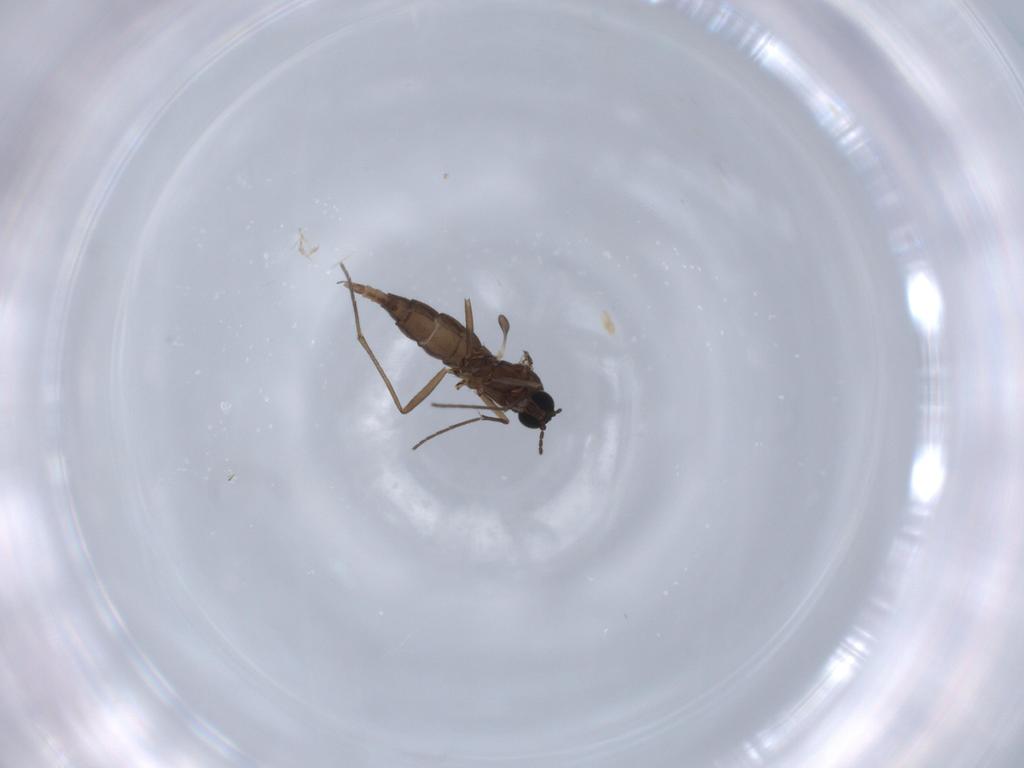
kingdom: Animalia
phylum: Arthropoda
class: Insecta
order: Diptera
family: Sciaridae
